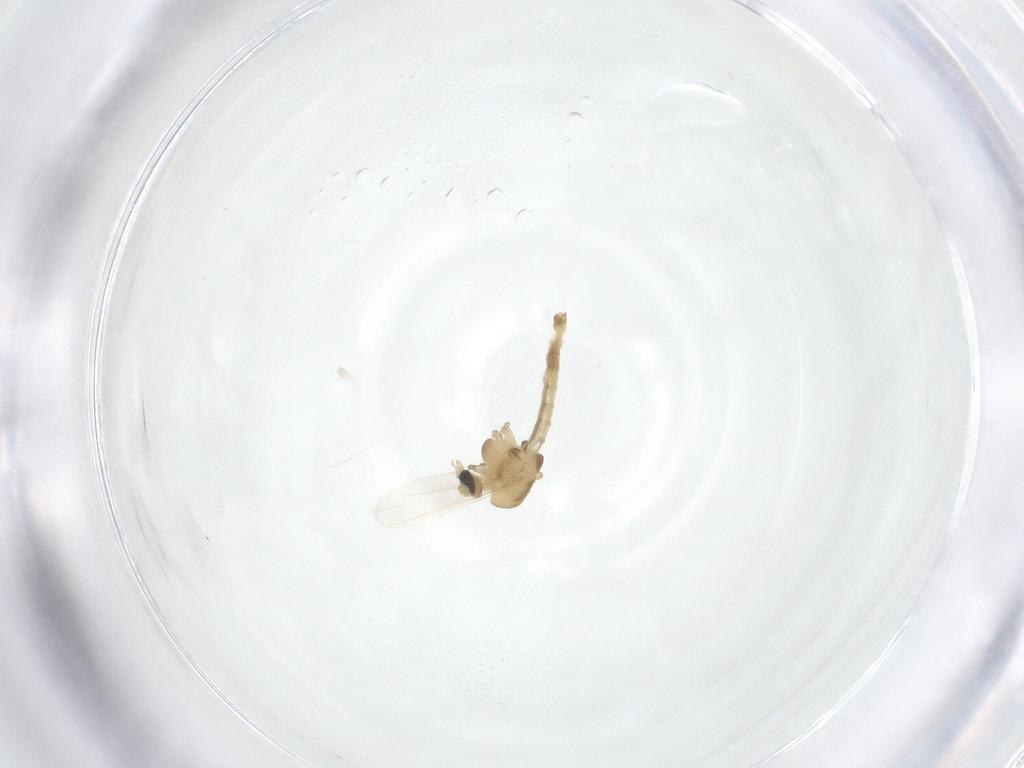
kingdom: Animalia
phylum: Arthropoda
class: Insecta
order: Diptera
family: Chironomidae
